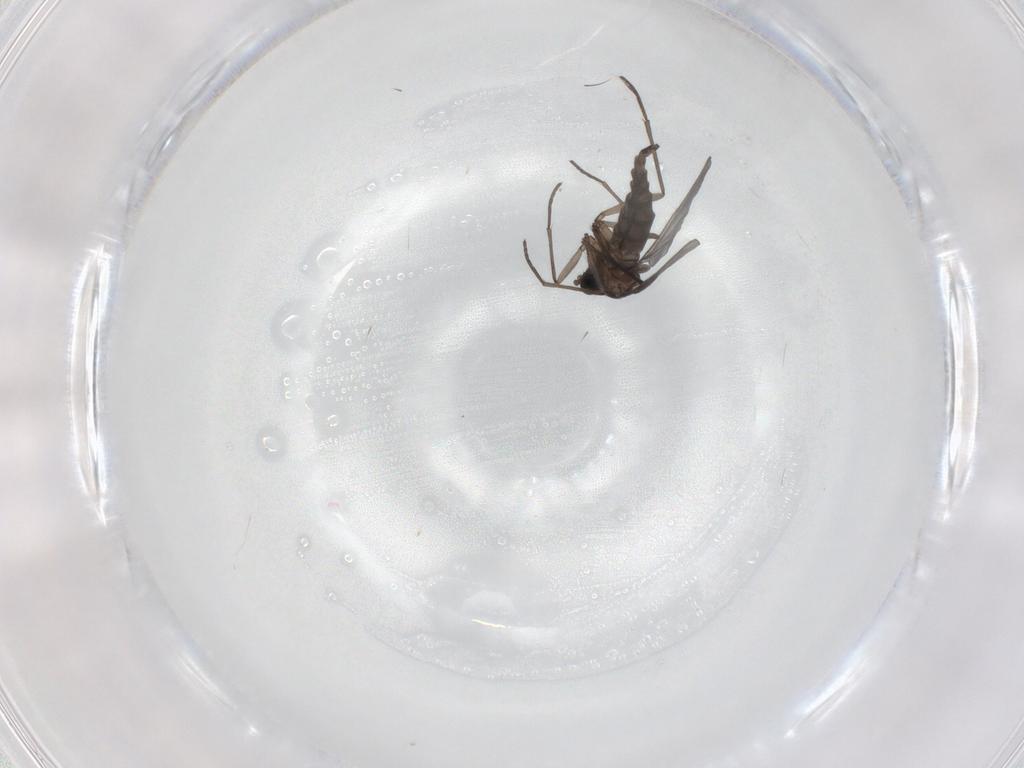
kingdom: Animalia
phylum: Arthropoda
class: Insecta
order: Diptera
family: Chironomidae
